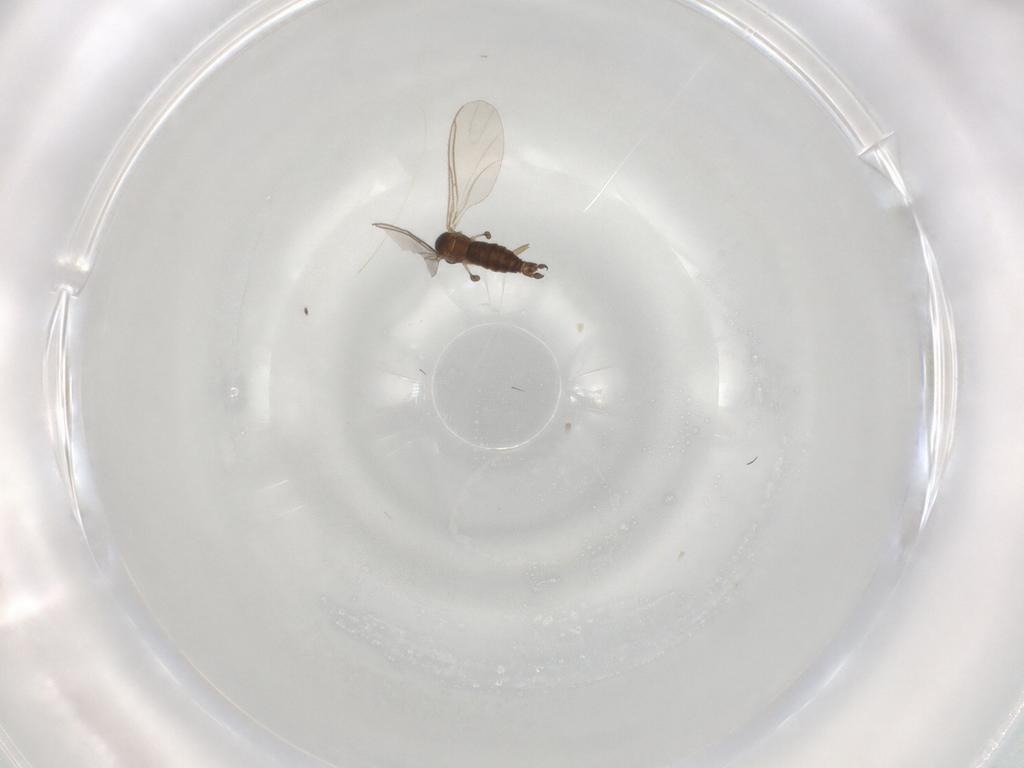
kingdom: Animalia
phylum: Arthropoda
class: Insecta
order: Diptera
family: Sciaridae
